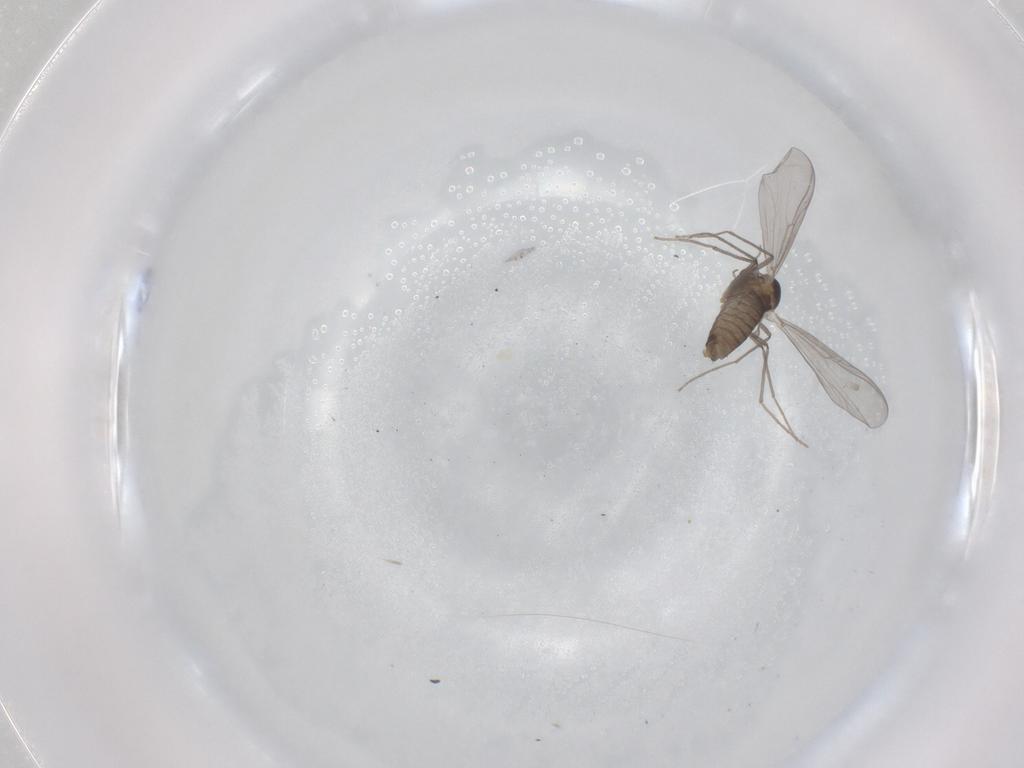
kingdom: Animalia
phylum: Arthropoda
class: Insecta
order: Diptera
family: Chironomidae
